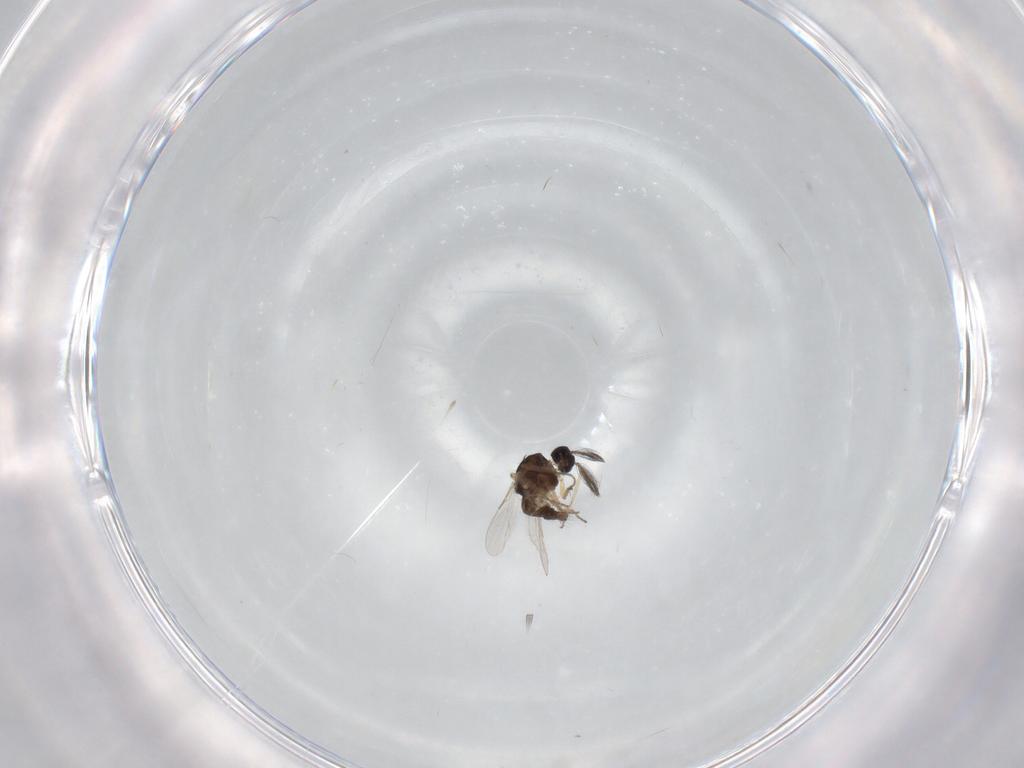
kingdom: Animalia
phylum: Arthropoda
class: Insecta
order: Diptera
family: Ceratopogonidae
